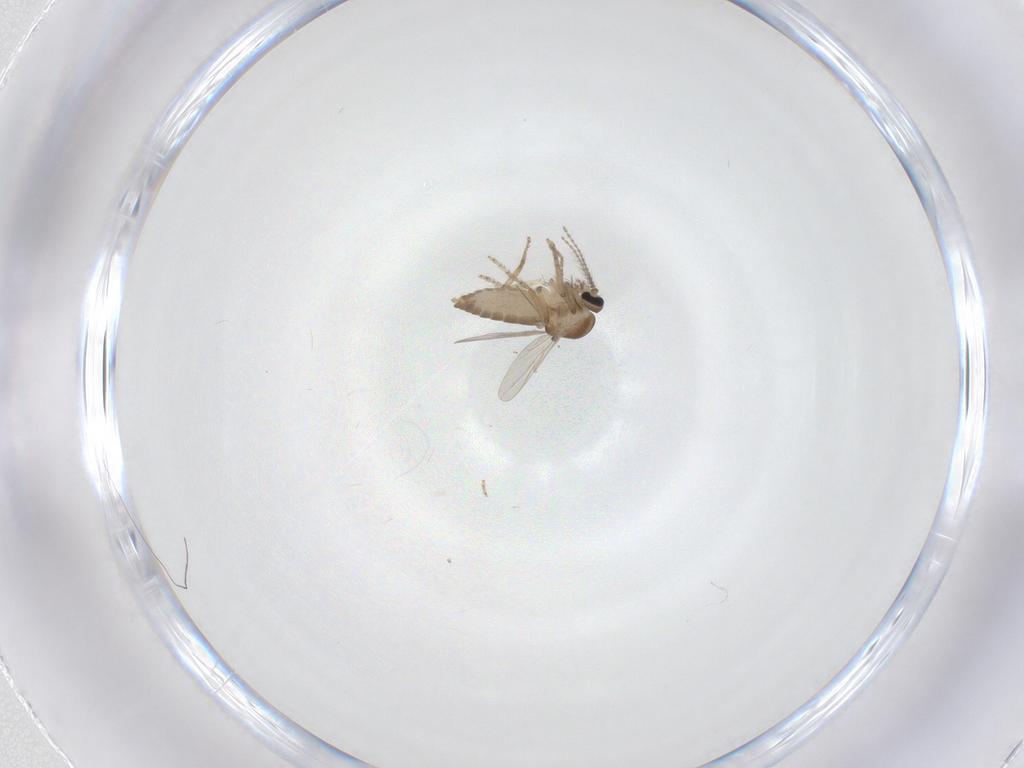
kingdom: Animalia
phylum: Arthropoda
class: Insecta
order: Diptera
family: Ceratopogonidae
